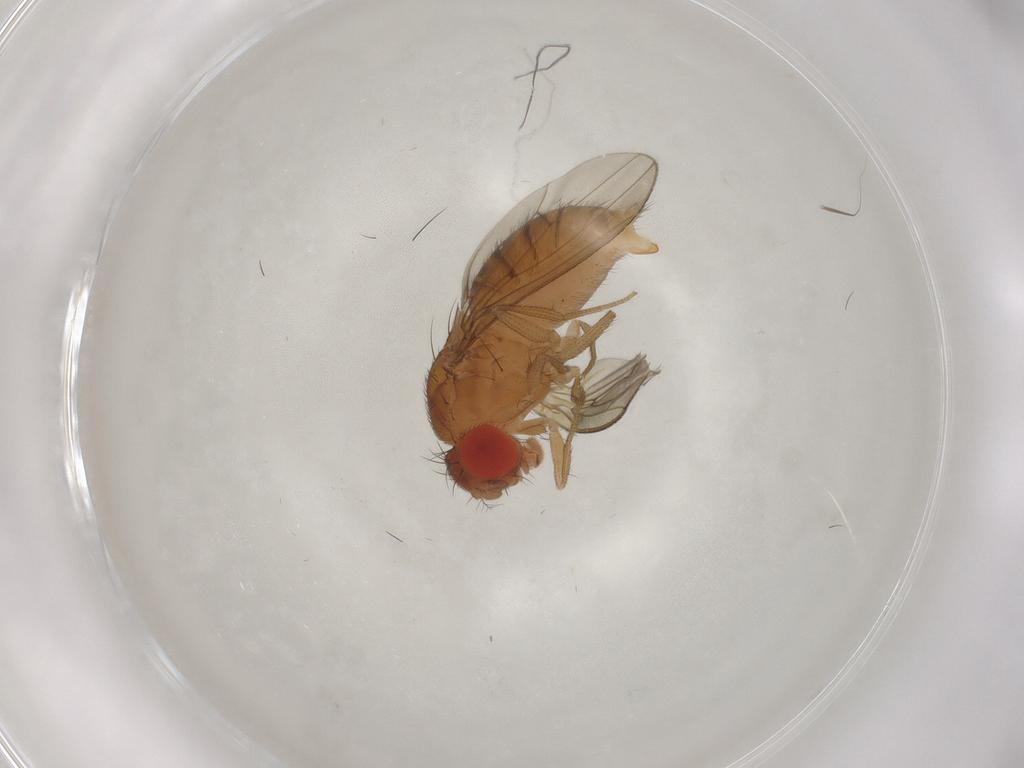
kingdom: Animalia
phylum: Arthropoda
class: Insecta
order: Diptera
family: Drosophilidae
